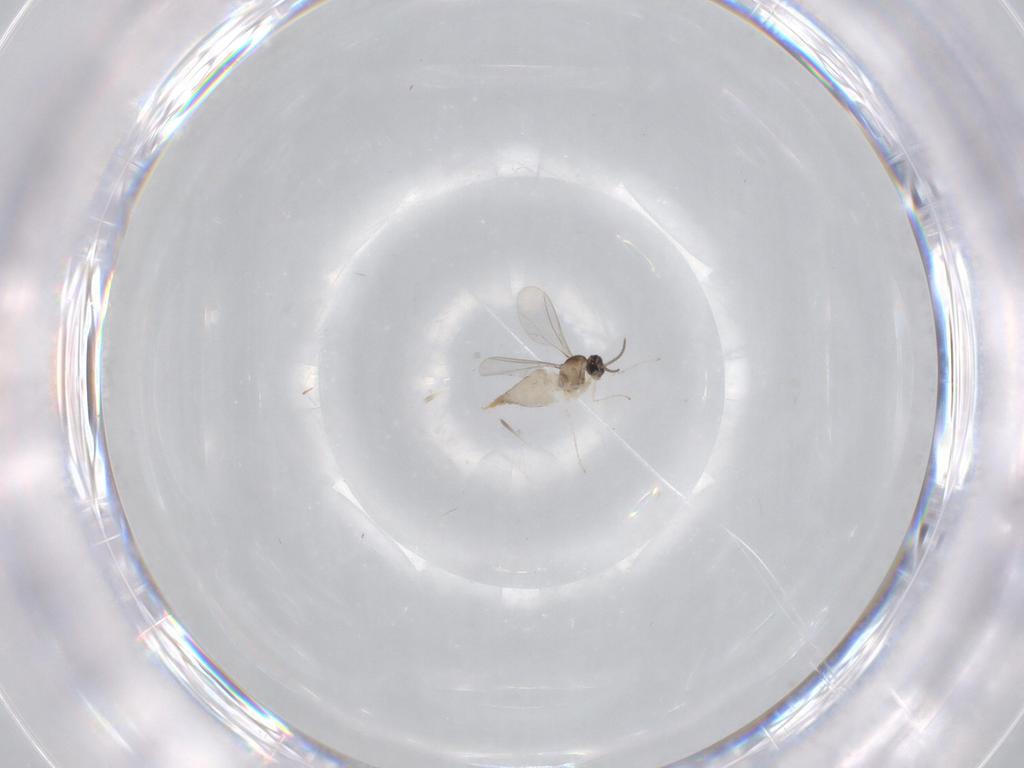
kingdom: Animalia
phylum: Arthropoda
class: Insecta
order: Diptera
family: Cecidomyiidae
